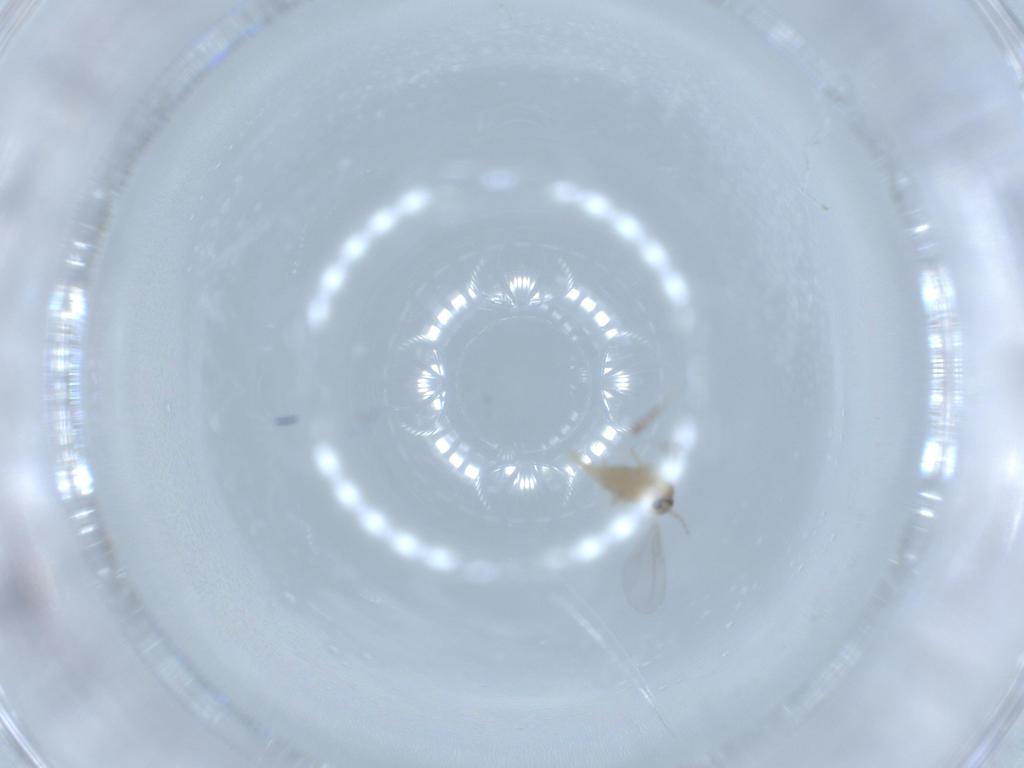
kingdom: Animalia
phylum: Arthropoda
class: Insecta
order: Diptera
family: Cecidomyiidae
